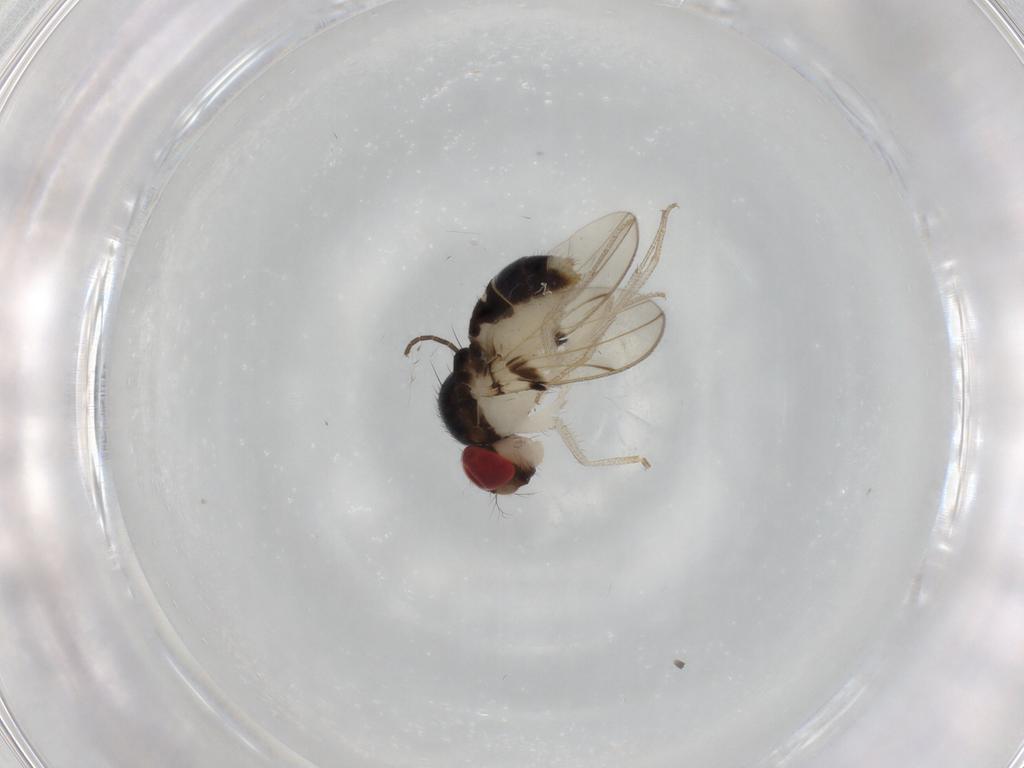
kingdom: Animalia
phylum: Arthropoda
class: Insecta
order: Diptera
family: Drosophilidae
